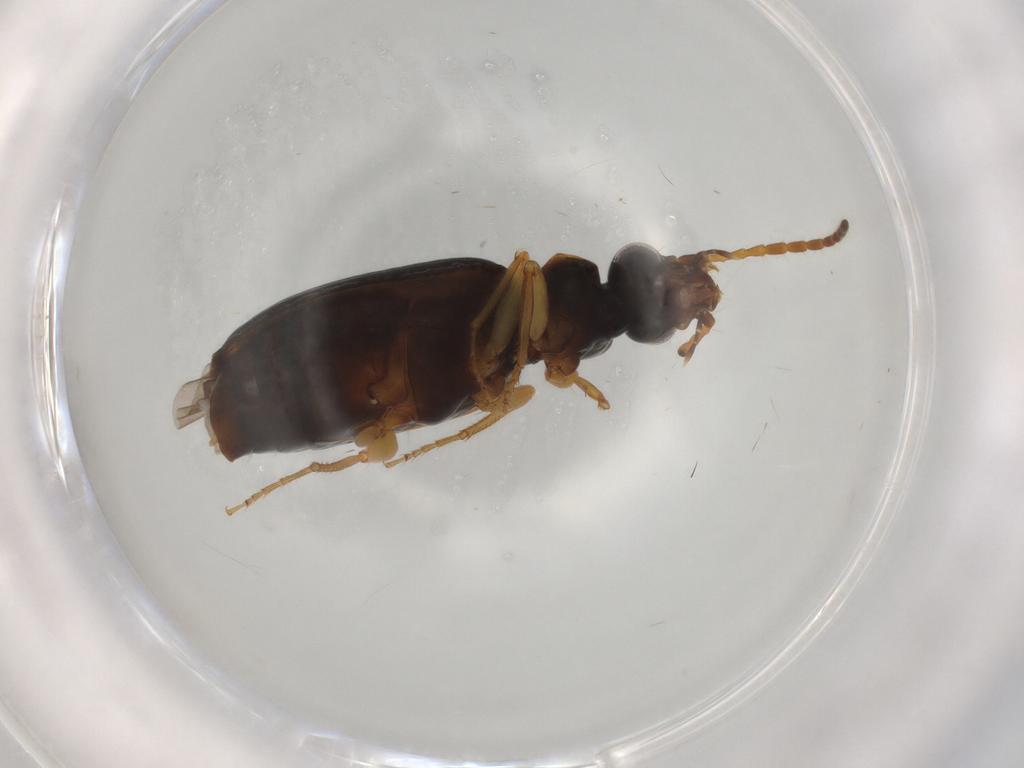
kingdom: Animalia
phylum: Arthropoda
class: Insecta
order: Coleoptera
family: Carabidae
